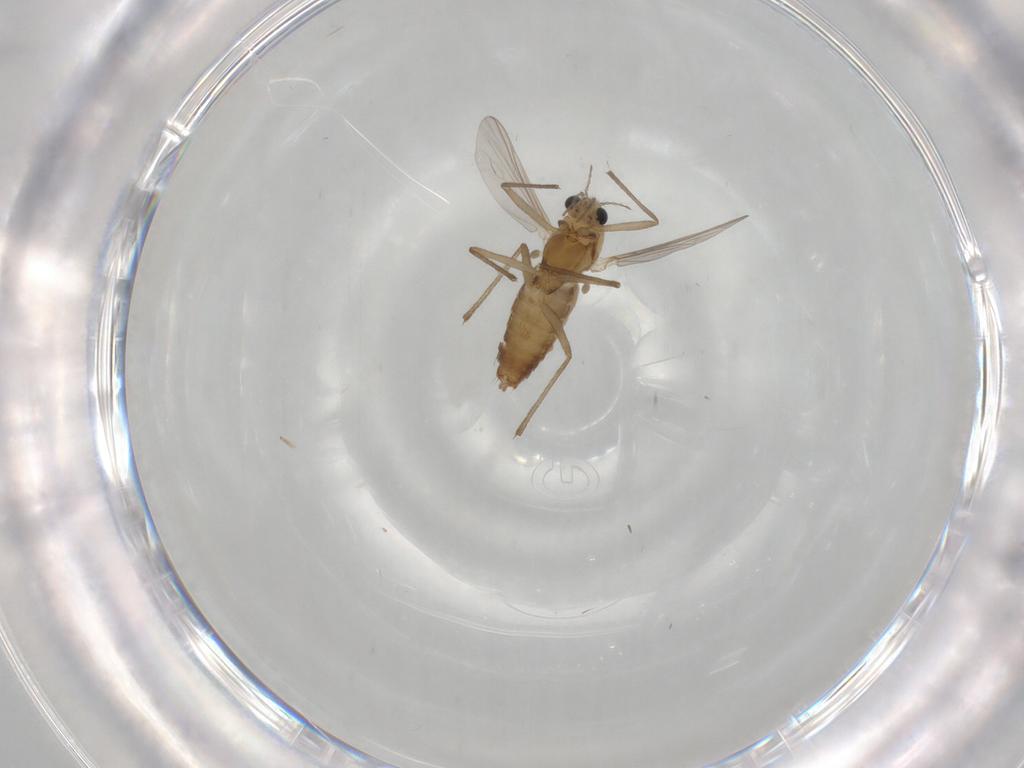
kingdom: Animalia
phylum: Arthropoda
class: Insecta
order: Diptera
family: Chironomidae
